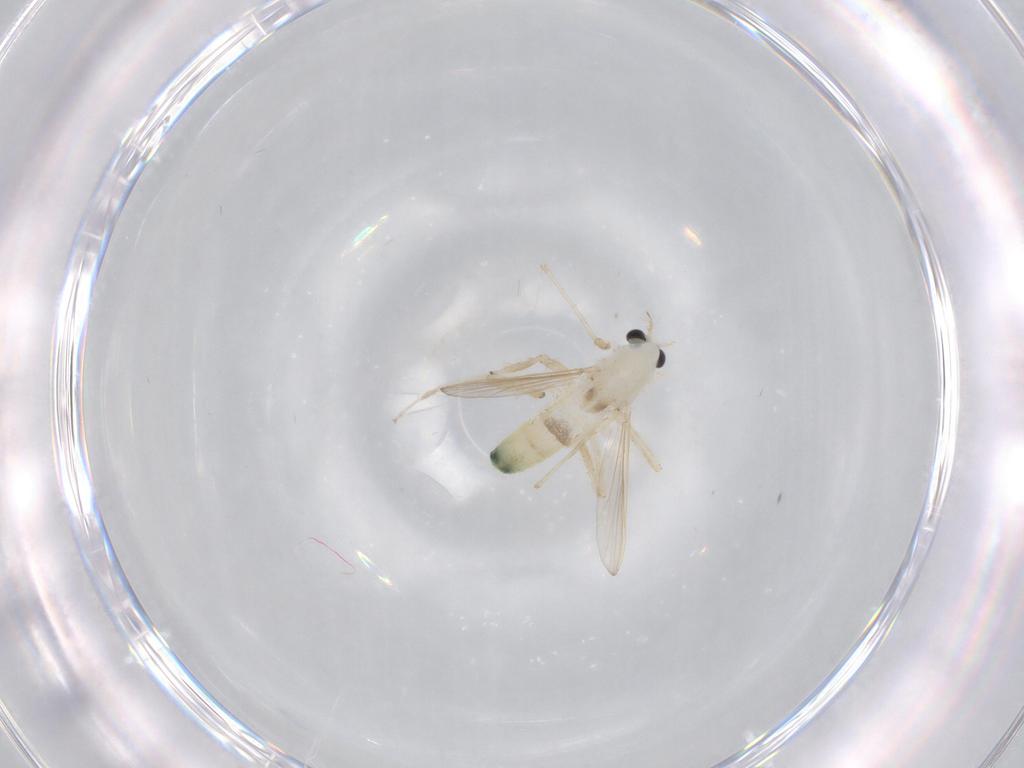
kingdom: Animalia
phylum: Arthropoda
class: Insecta
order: Diptera
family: Chironomidae
